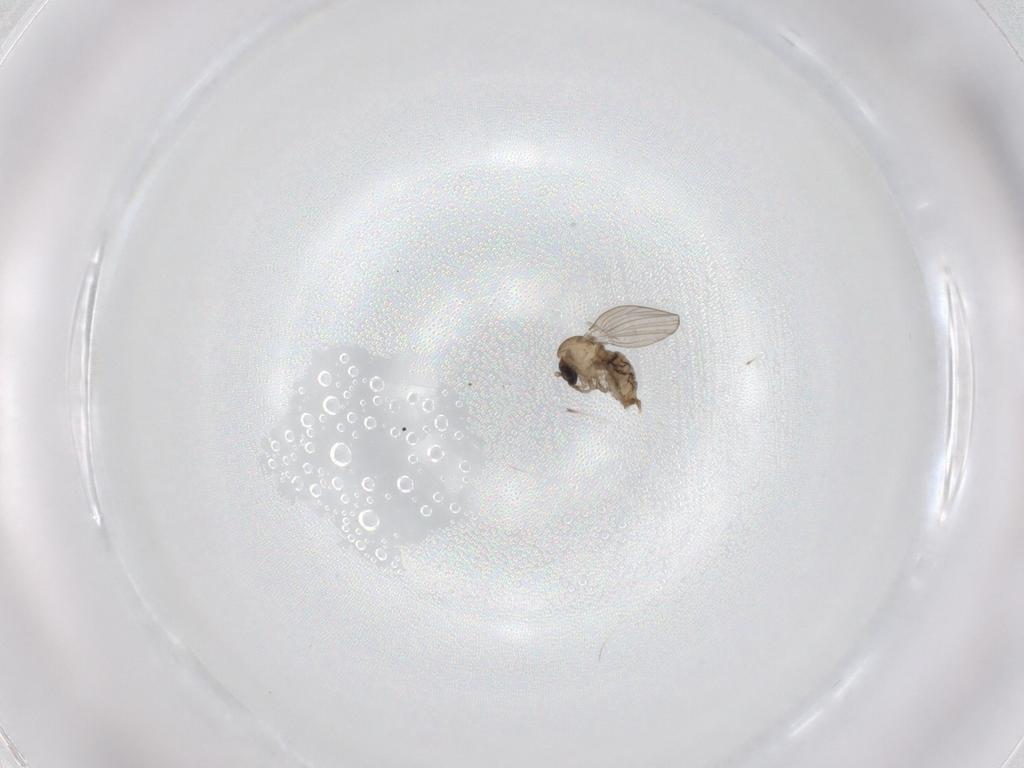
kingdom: Animalia
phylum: Arthropoda
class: Insecta
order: Diptera
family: Psychodidae
